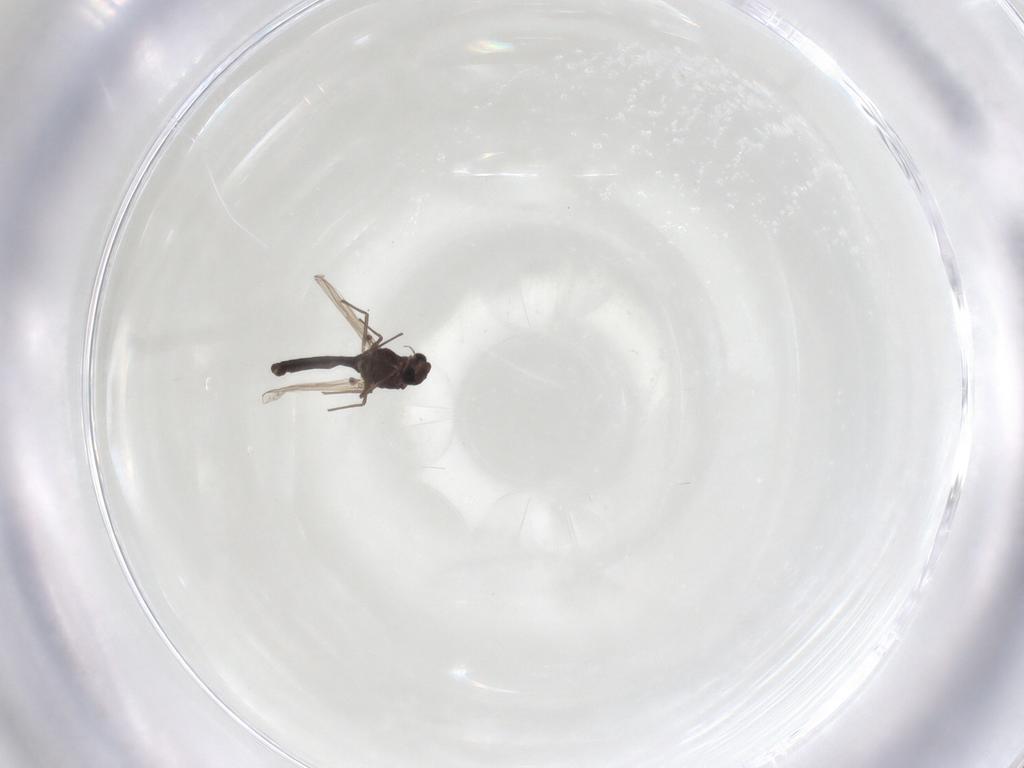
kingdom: Animalia
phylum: Arthropoda
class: Insecta
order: Diptera
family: Chironomidae
